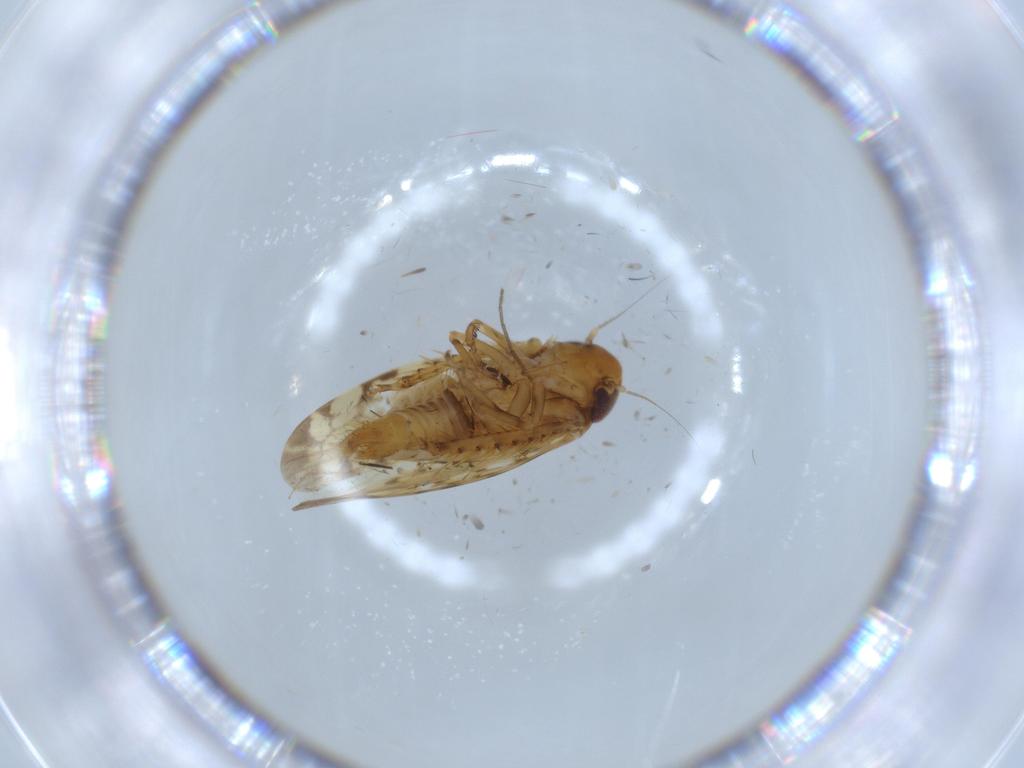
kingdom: Animalia
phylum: Arthropoda
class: Insecta
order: Hemiptera
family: Cicadellidae
